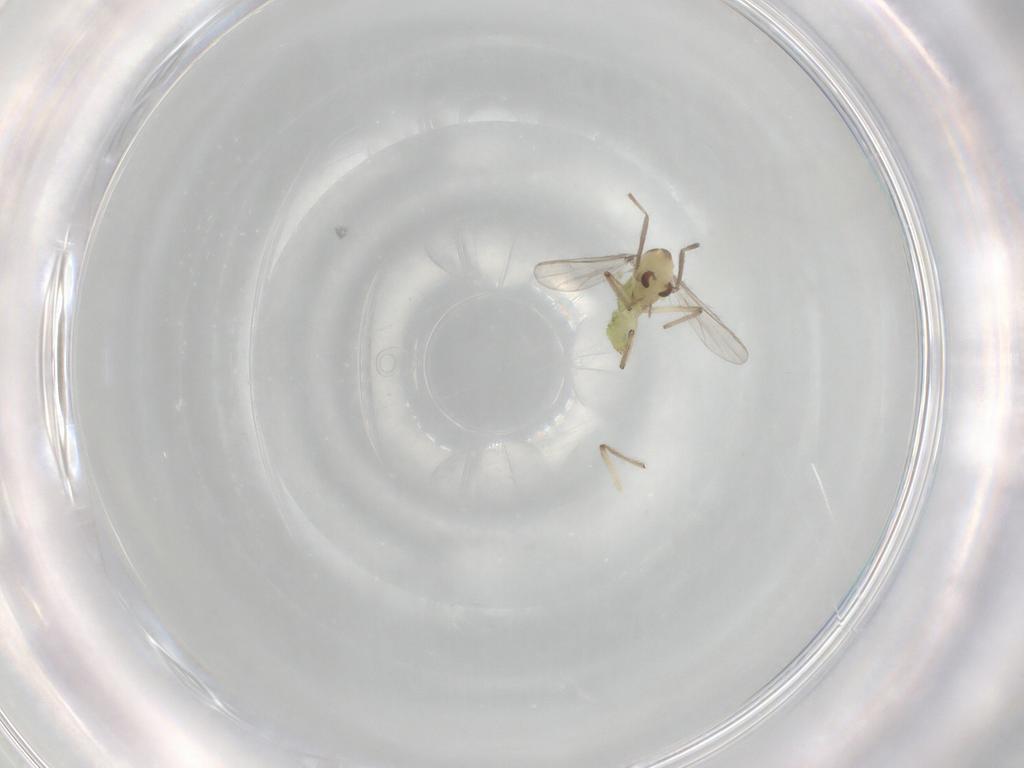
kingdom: Animalia
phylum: Arthropoda
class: Insecta
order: Diptera
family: Chironomidae
